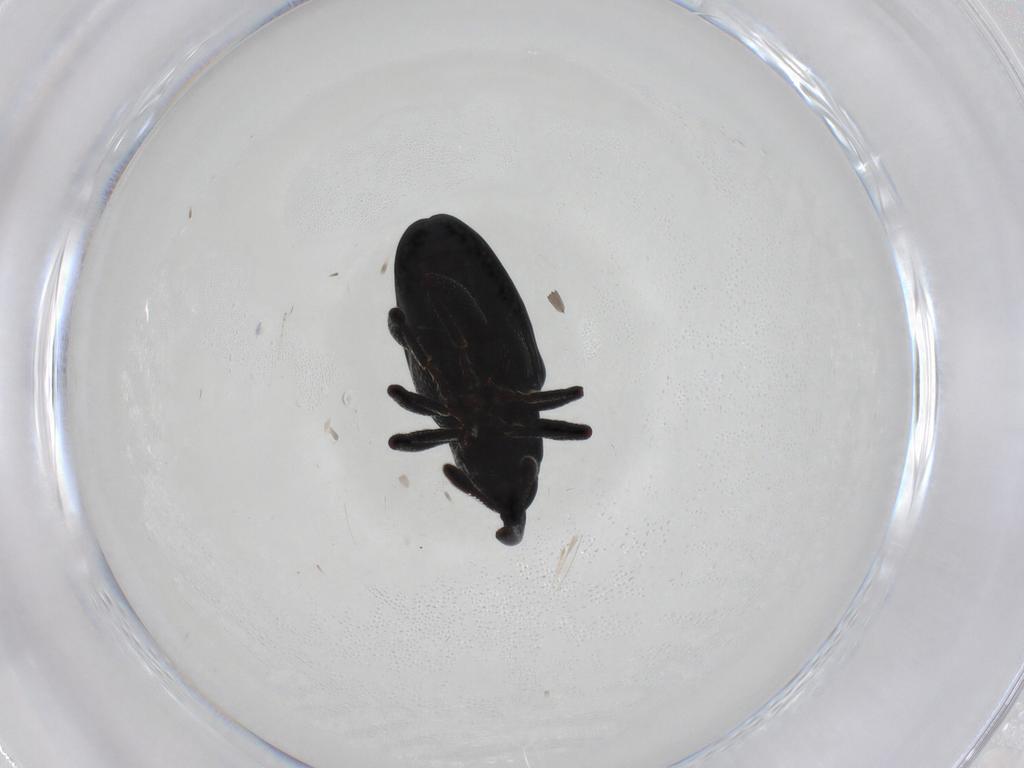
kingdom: Animalia
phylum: Arthropoda
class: Insecta
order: Coleoptera
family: Curculionidae
